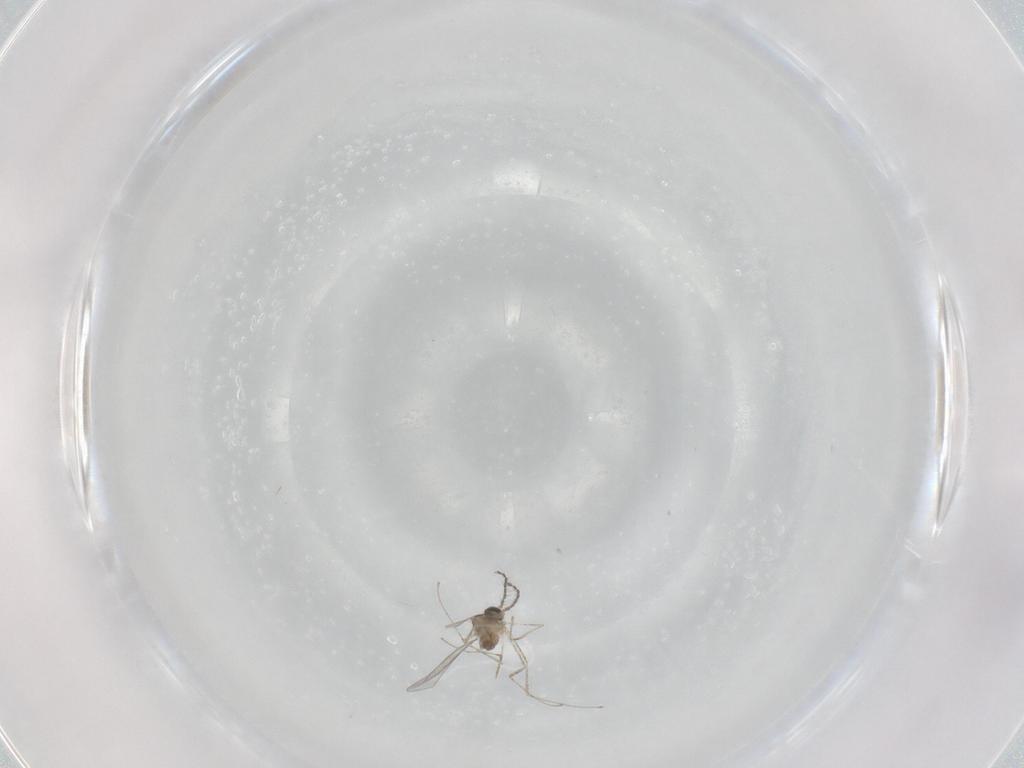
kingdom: Animalia
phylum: Arthropoda
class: Insecta
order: Diptera
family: Cecidomyiidae
